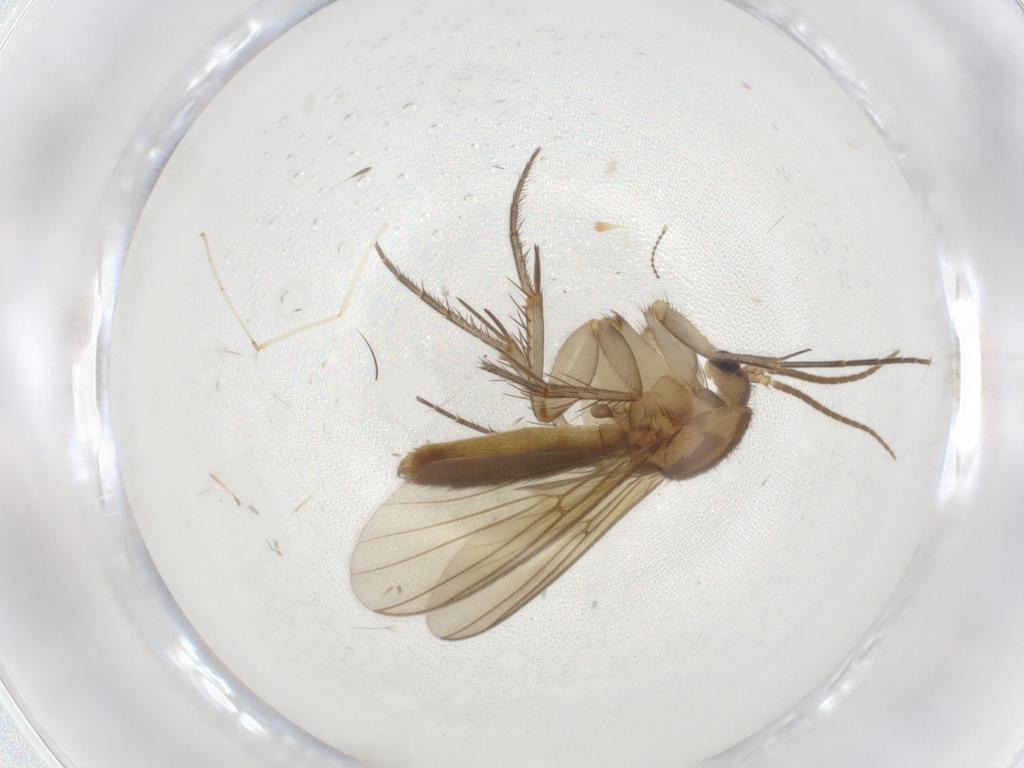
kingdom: Animalia
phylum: Arthropoda
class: Insecta
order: Diptera
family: Mycetophilidae
